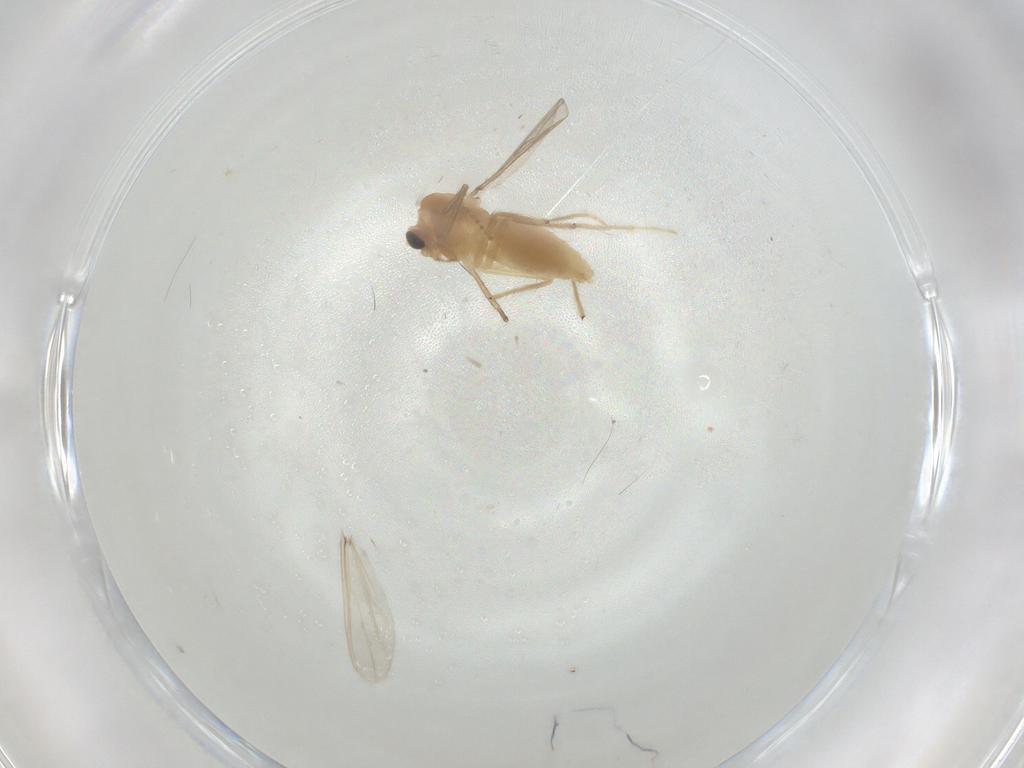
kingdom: Animalia
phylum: Arthropoda
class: Insecta
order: Diptera
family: Chironomidae
